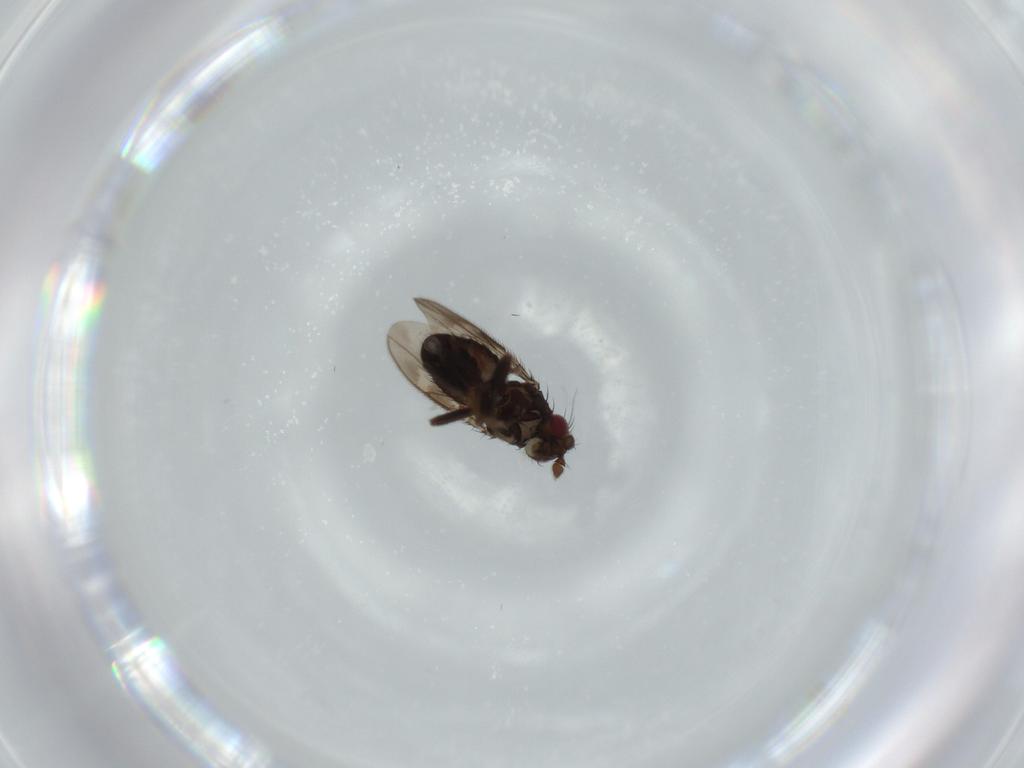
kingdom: Animalia
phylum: Arthropoda
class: Insecta
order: Diptera
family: Sphaeroceridae
